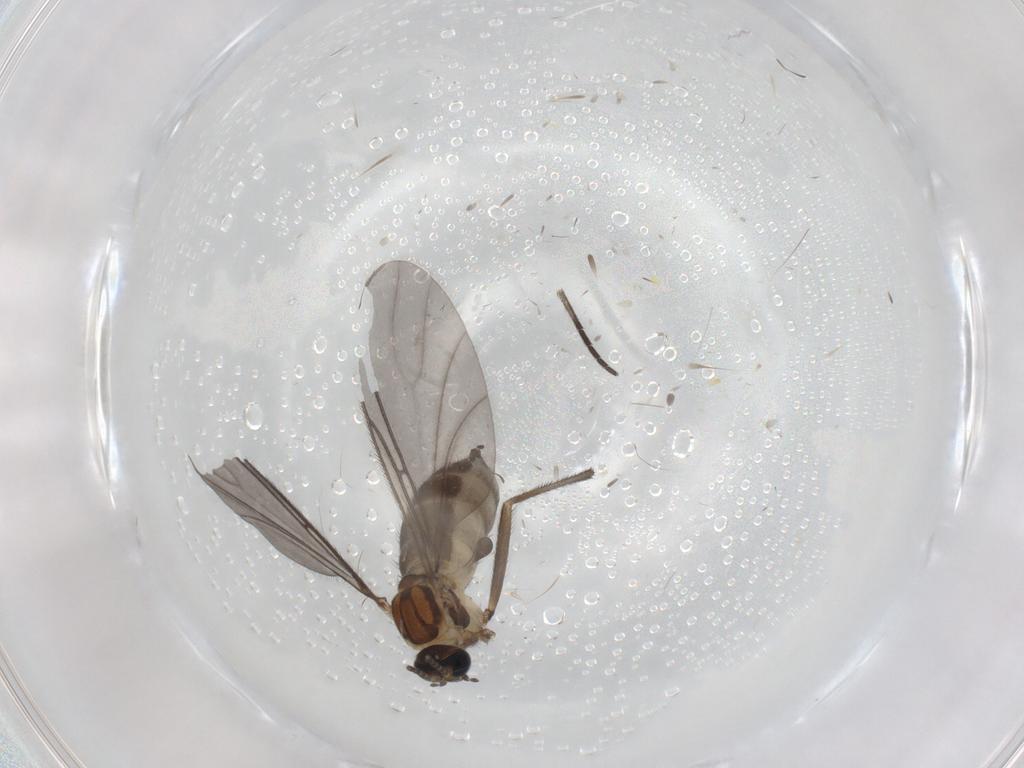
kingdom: Animalia
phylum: Arthropoda
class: Insecta
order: Diptera
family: Sciaridae
